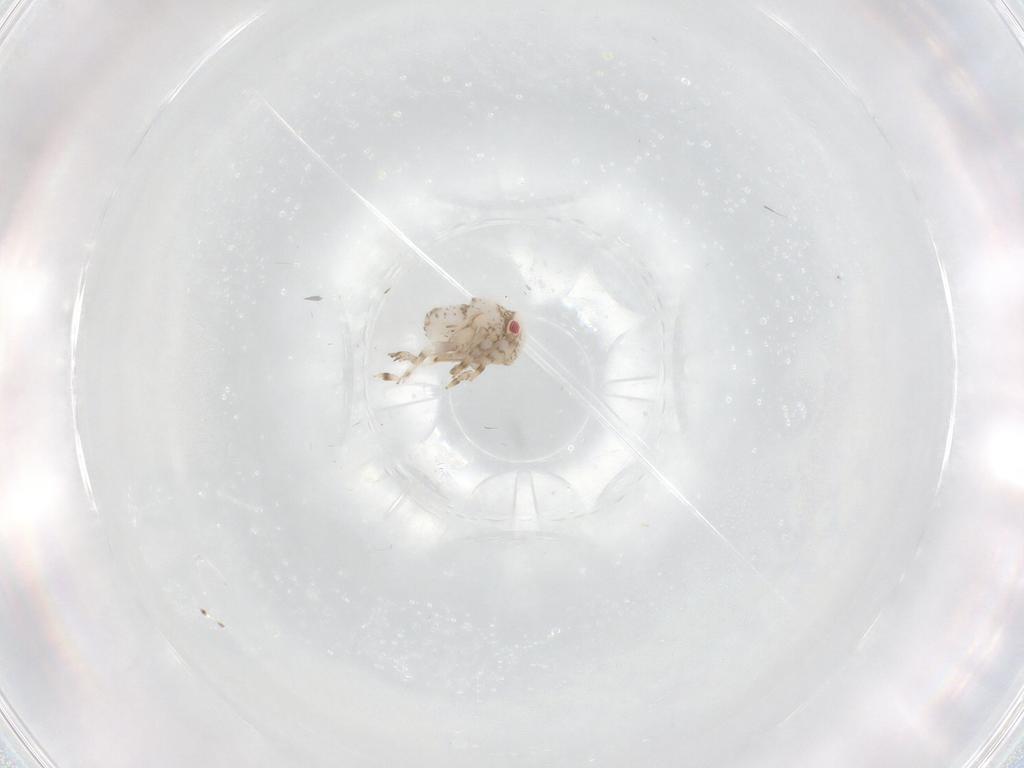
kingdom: Animalia
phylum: Arthropoda
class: Insecta
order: Hemiptera
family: Acanaloniidae
